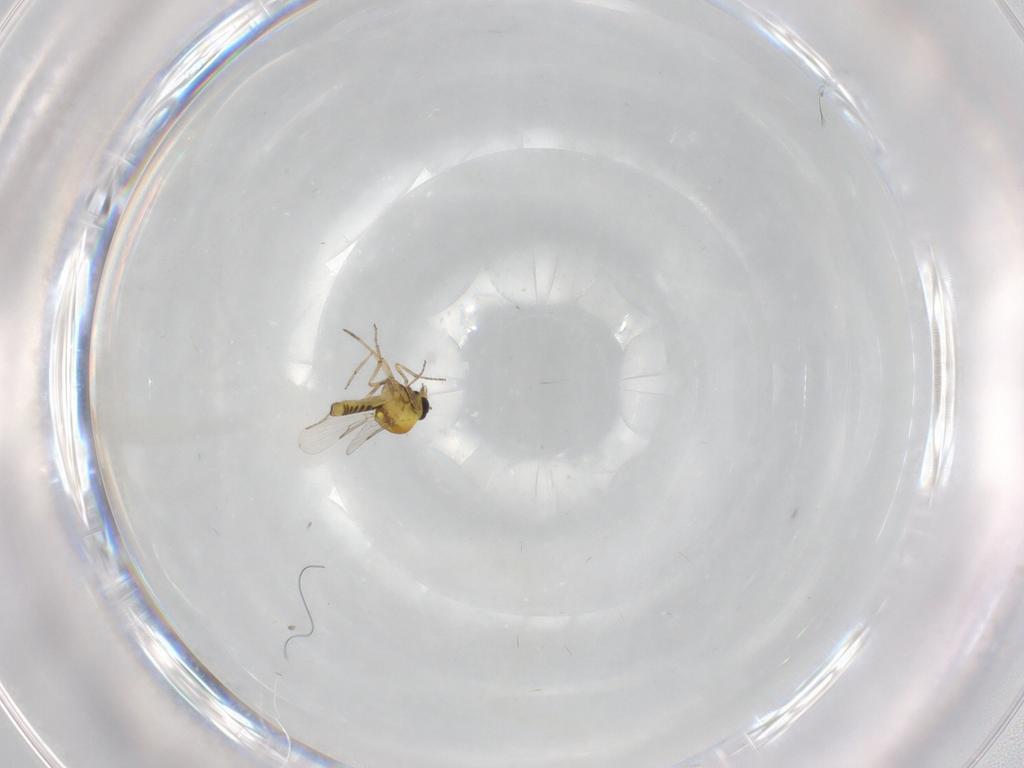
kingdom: Animalia
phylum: Arthropoda
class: Insecta
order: Diptera
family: Ceratopogonidae
